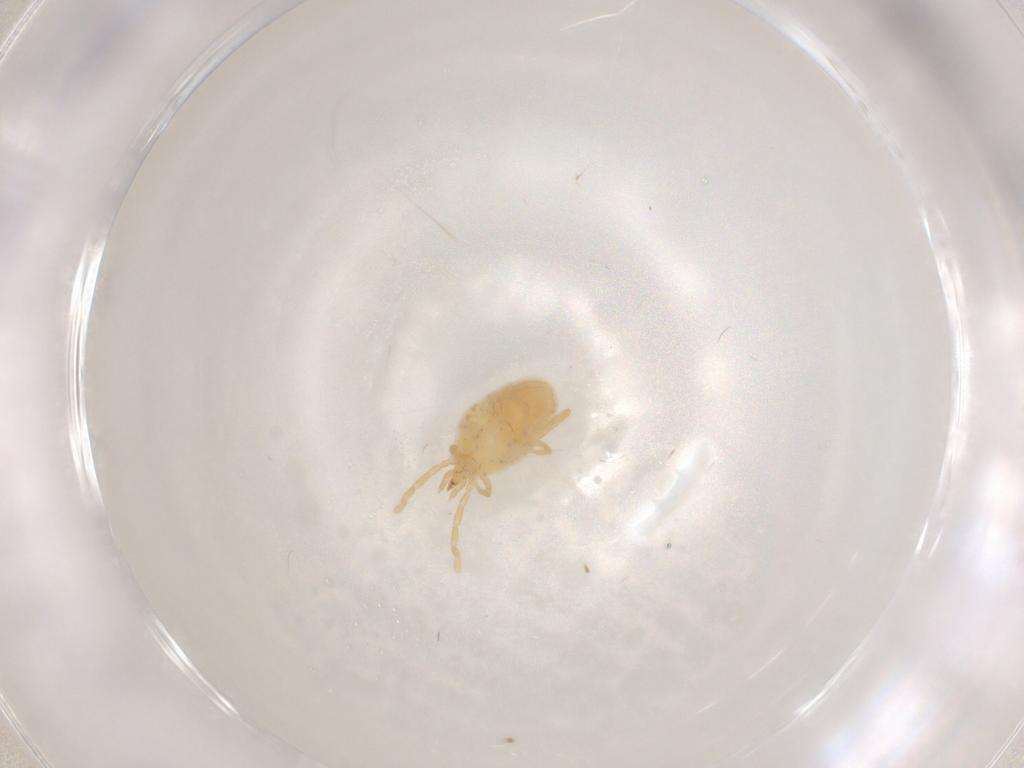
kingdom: Animalia
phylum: Arthropoda
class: Arachnida
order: Trombidiformes
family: Erythraeidae
